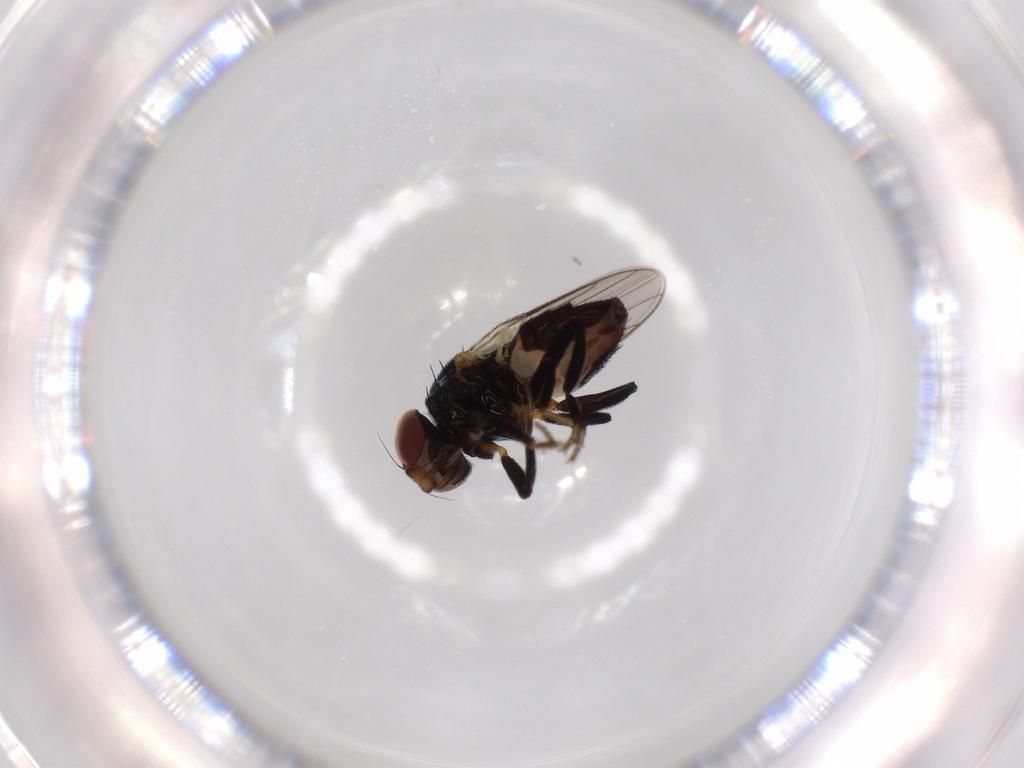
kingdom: Animalia
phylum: Arthropoda
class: Insecta
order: Diptera
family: Chloropidae
